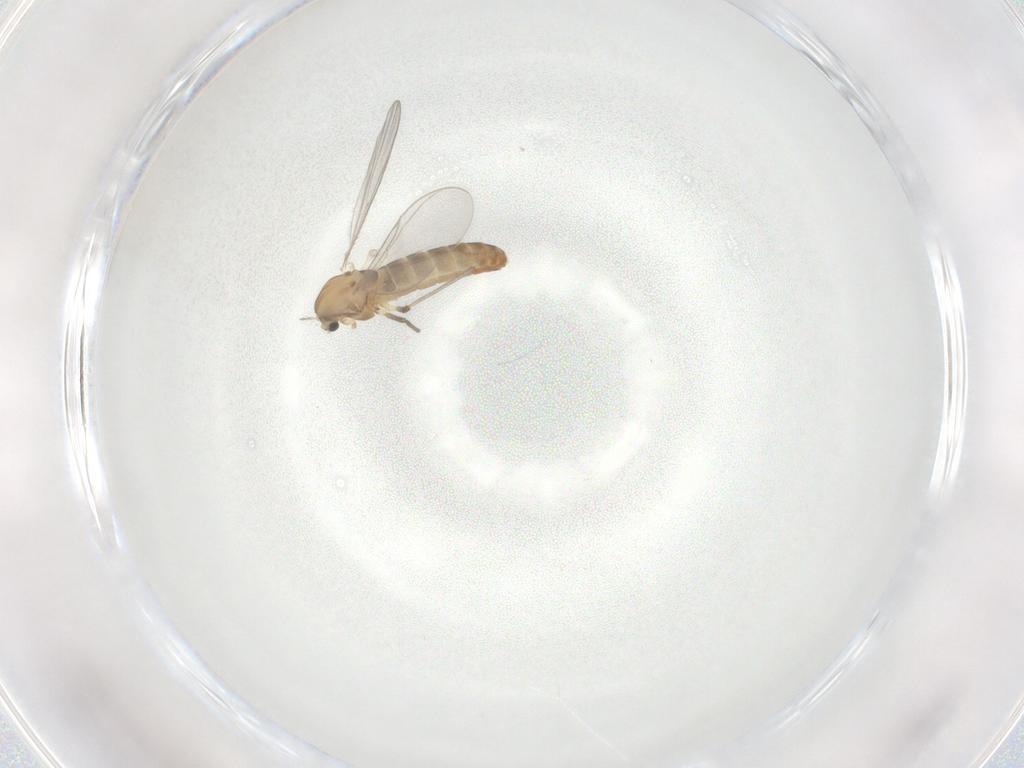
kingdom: Animalia
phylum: Arthropoda
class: Insecta
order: Diptera
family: Chironomidae
